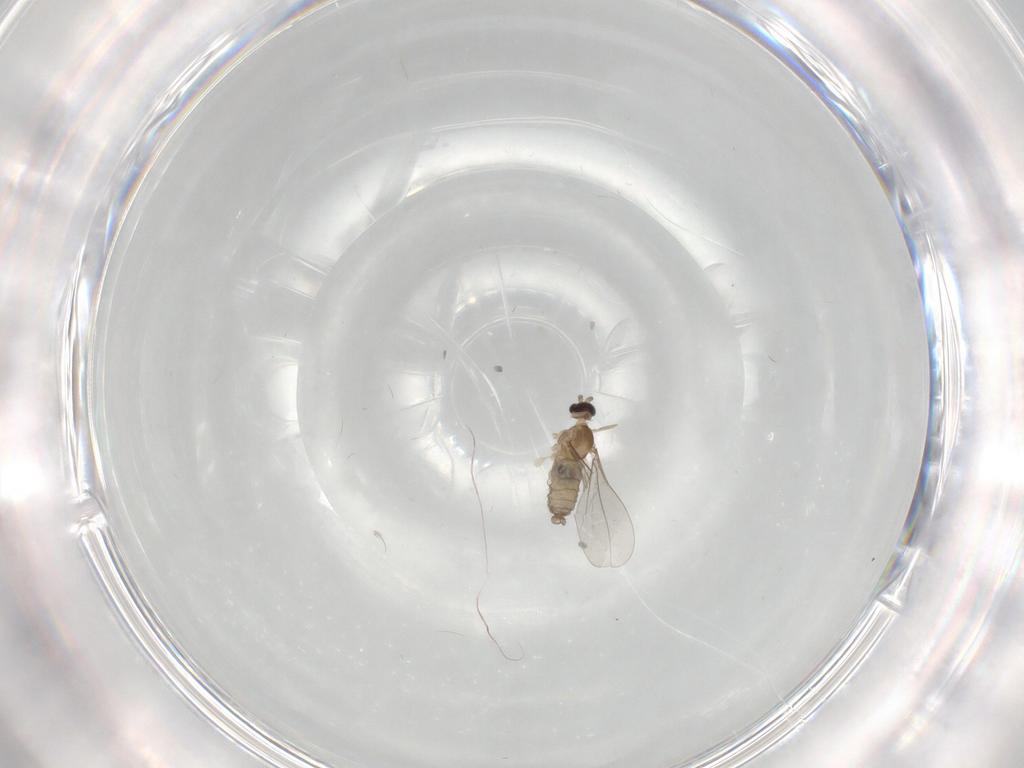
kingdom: Animalia
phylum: Arthropoda
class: Insecta
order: Diptera
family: Cecidomyiidae
